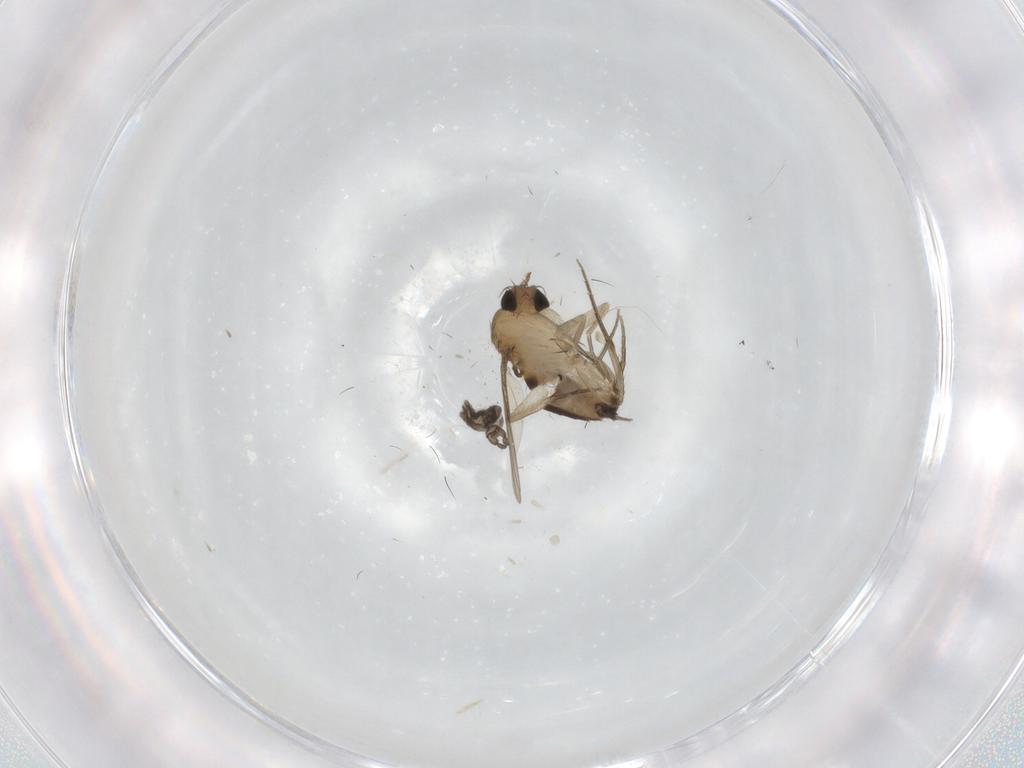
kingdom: Animalia
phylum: Arthropoda
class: Insecta
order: Diptera
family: Phoridae
